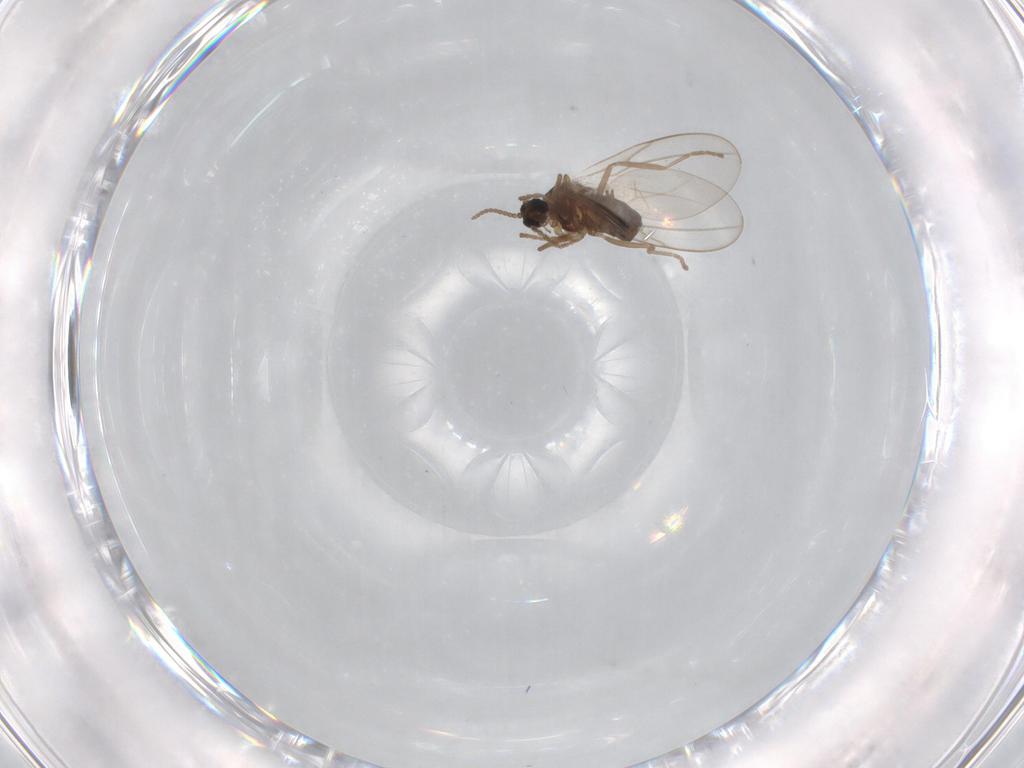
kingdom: Animalia
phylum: Arthropoda
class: Insecta
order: Diptera
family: Cecidomyiidae
